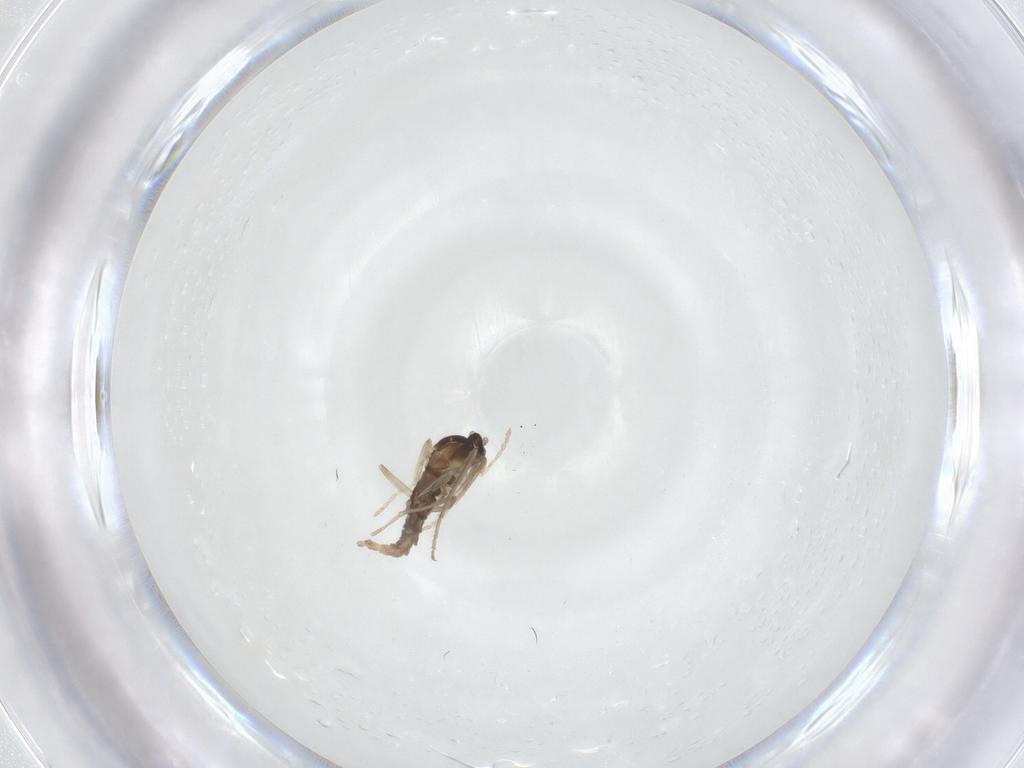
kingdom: Animalia
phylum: Arthropoda
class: Insecta
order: Diptera
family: Cecidomyiidae
